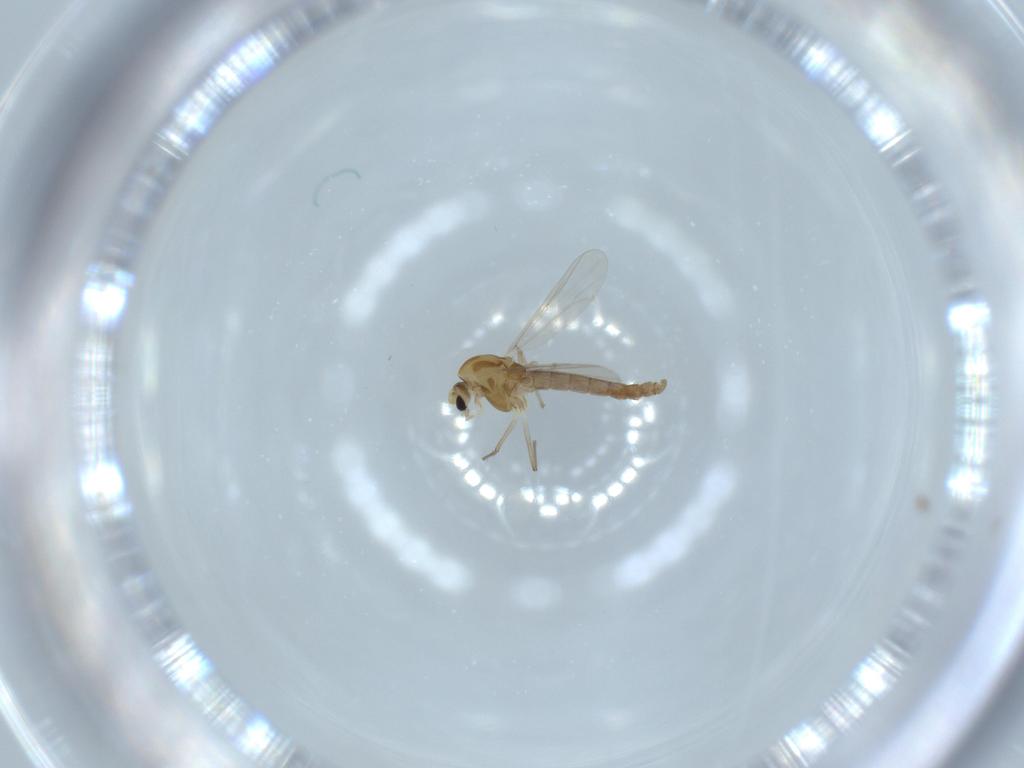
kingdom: Animalia
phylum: Arthropoda
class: Insecta
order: Diptera
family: Chironomidae
